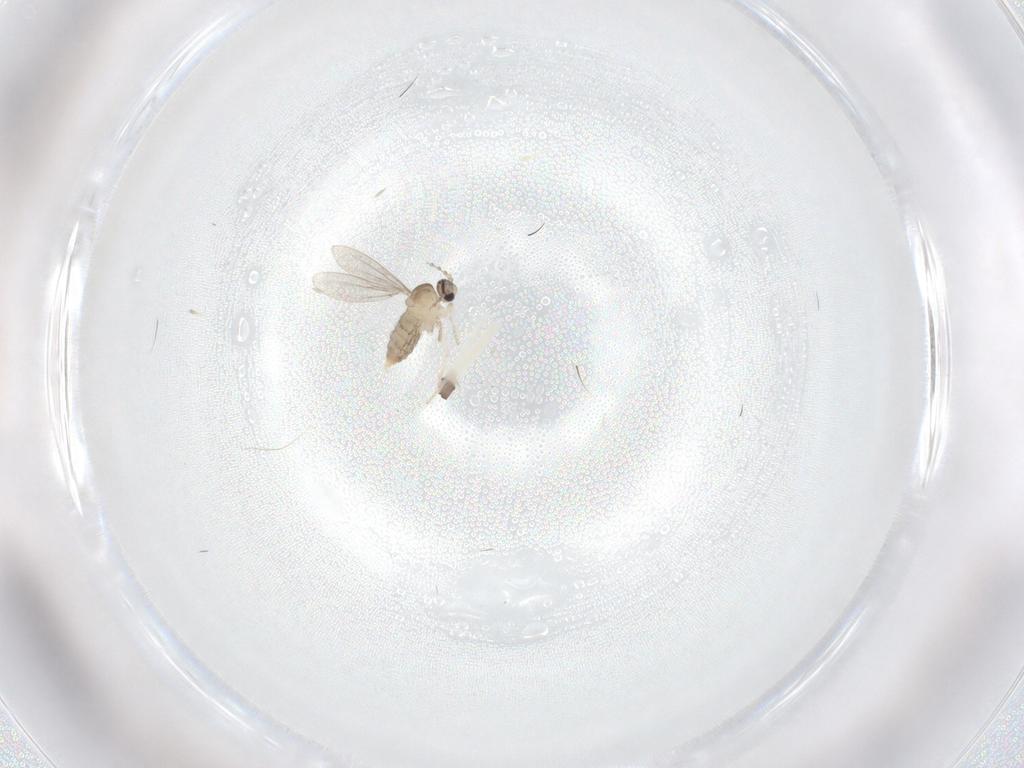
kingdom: Animalia
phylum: Arthropoda
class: Insecta
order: Diptera
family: Cecidomyiidae
